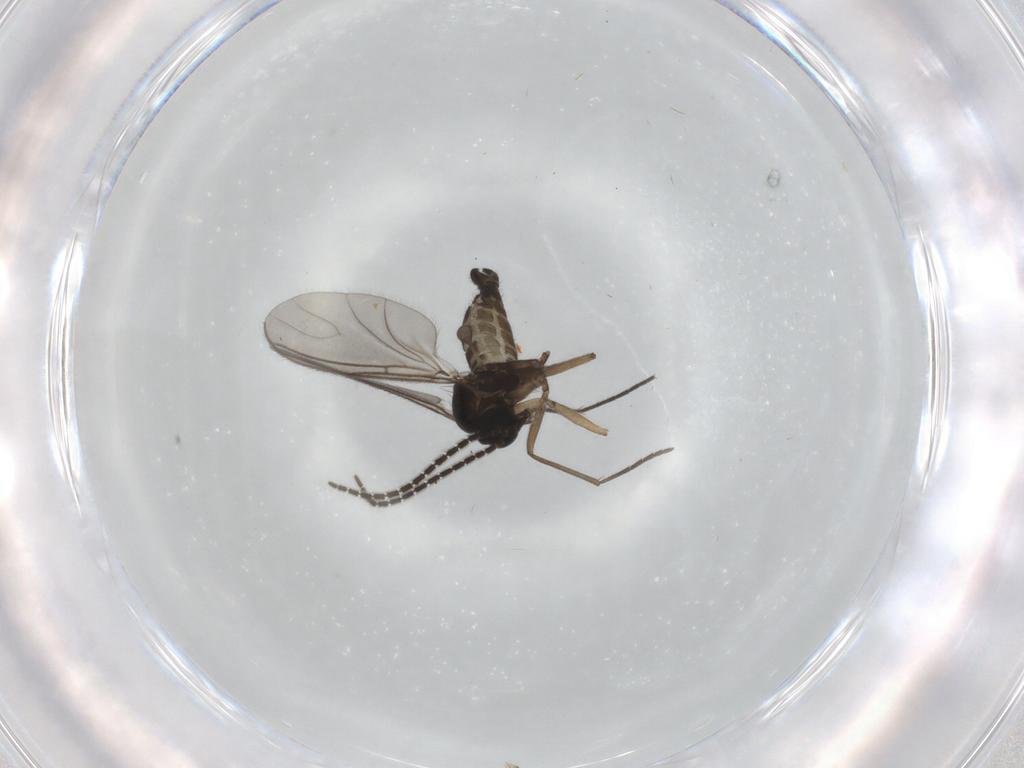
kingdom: Animalia
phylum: Arthropoda
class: Insecta
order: Diptera
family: Sciaridae
